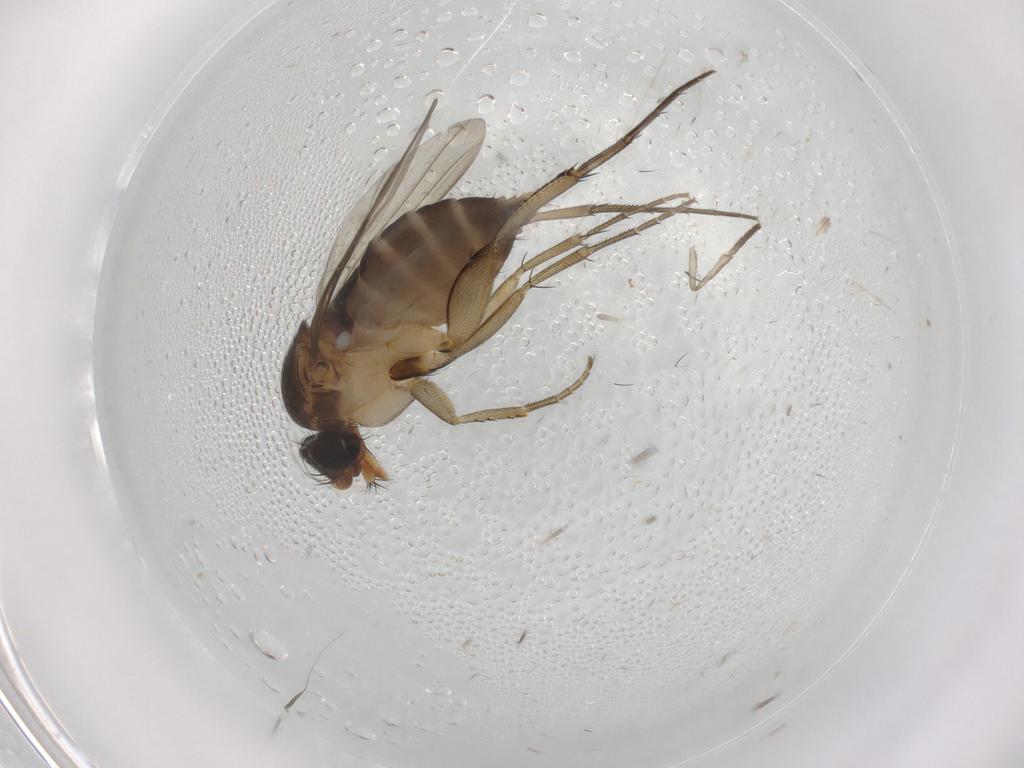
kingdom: Animalia
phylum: Arthropoda
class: Insecta
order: Diptera
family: Phoridae
